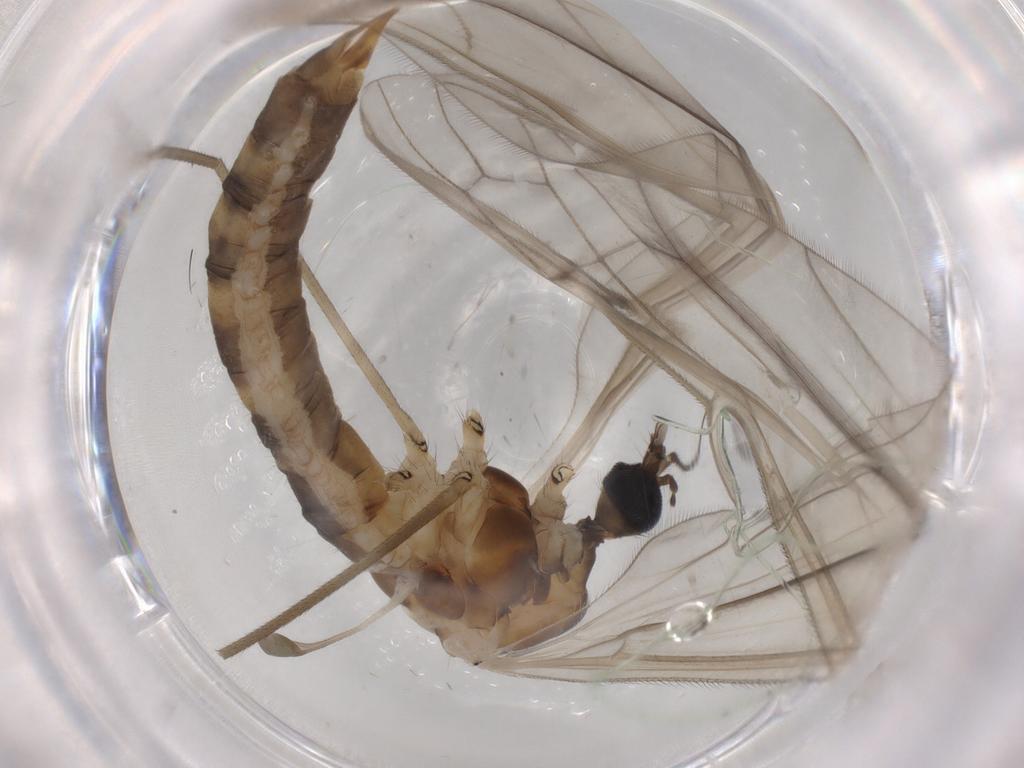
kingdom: Animalia
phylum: Arthropoda
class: Insecta
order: Diptera
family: Limoniidae
